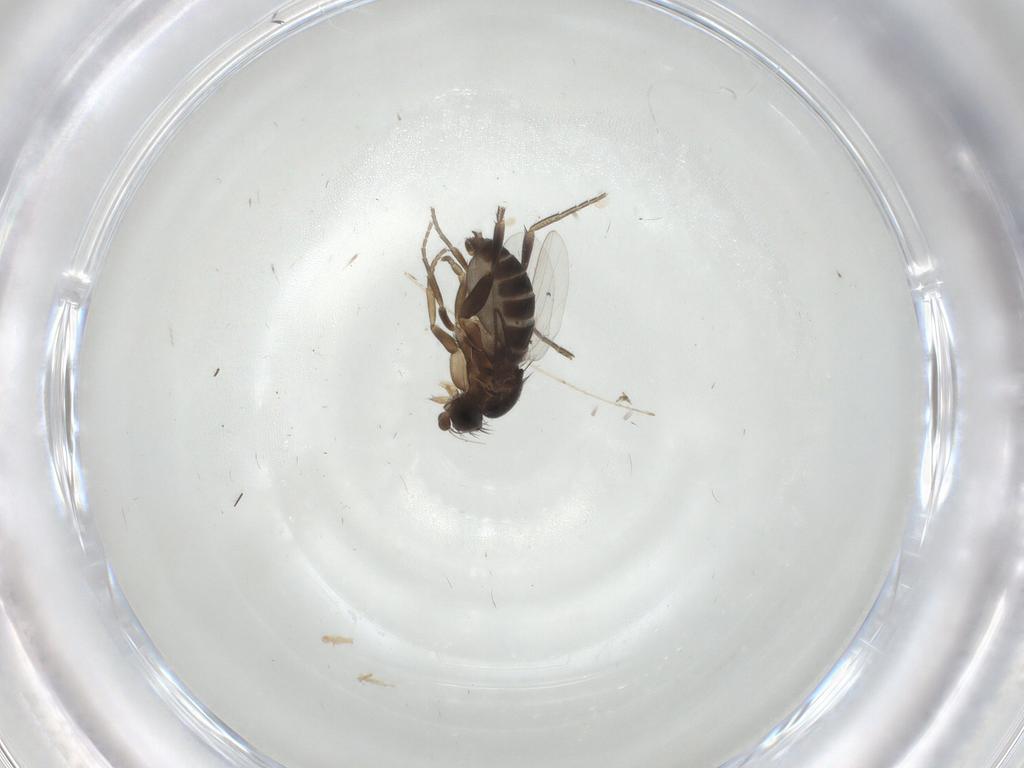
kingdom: Animalia
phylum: Arthropoda
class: Insecta
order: Diptera
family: Phoridae
